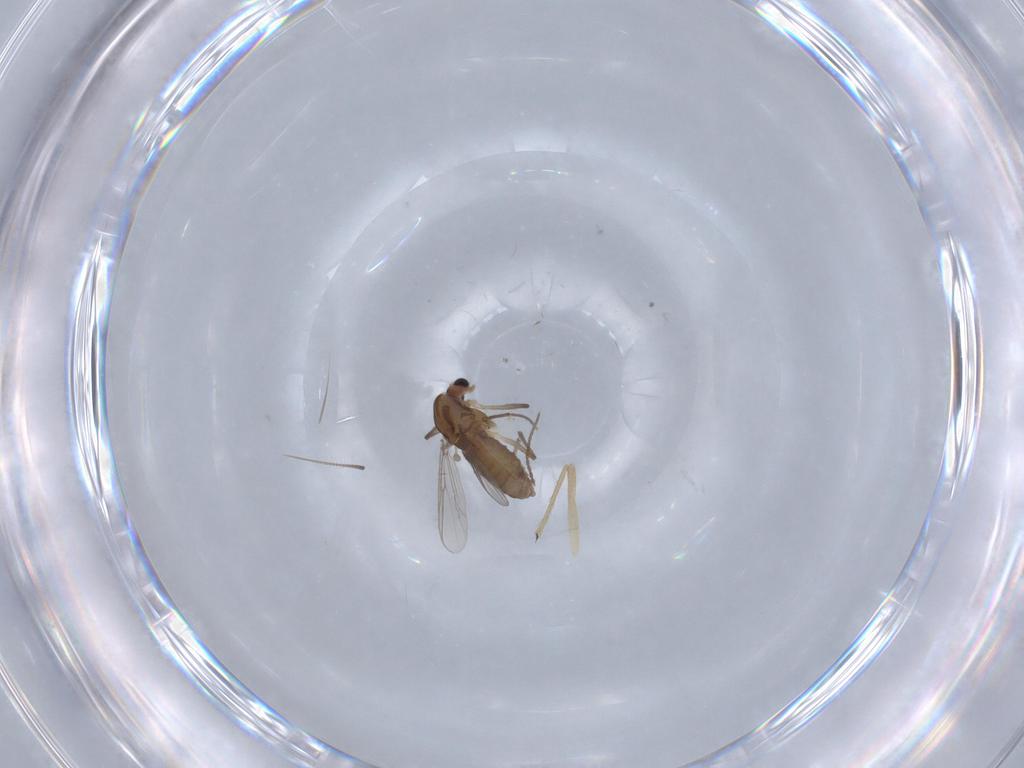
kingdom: Animalia
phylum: Arthropoda
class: Insecta
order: Diptera
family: Chironomidae
